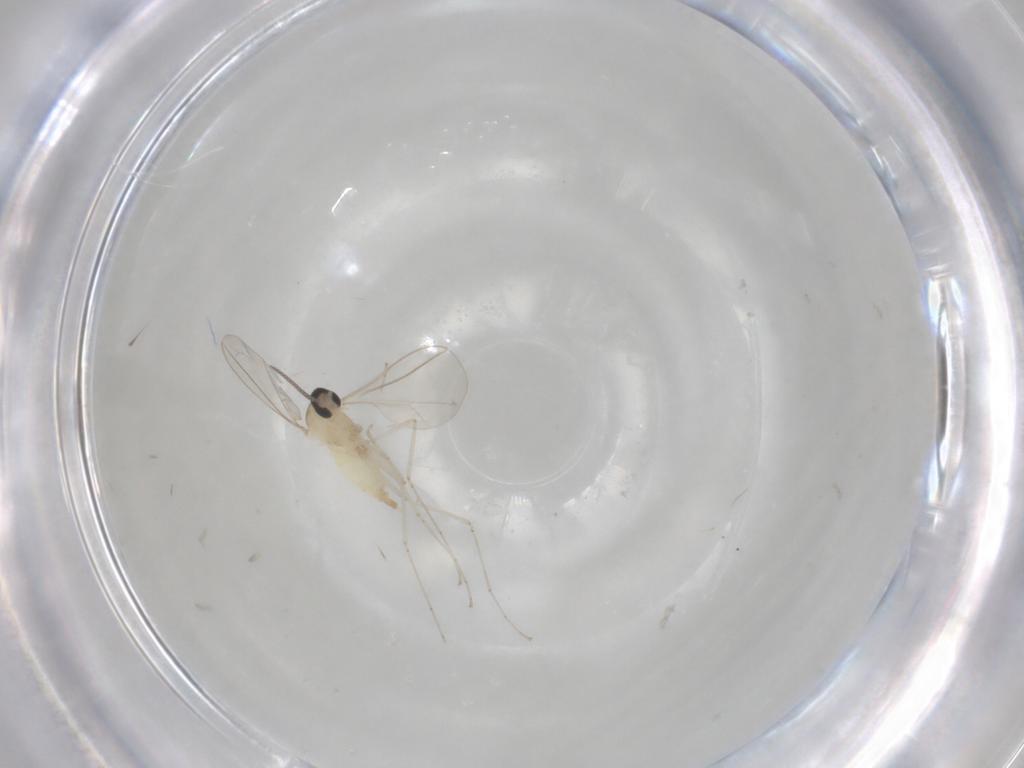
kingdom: Animalia
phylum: Arthropoda
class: Insecta
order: Diptera
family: Cecidomyiidae
